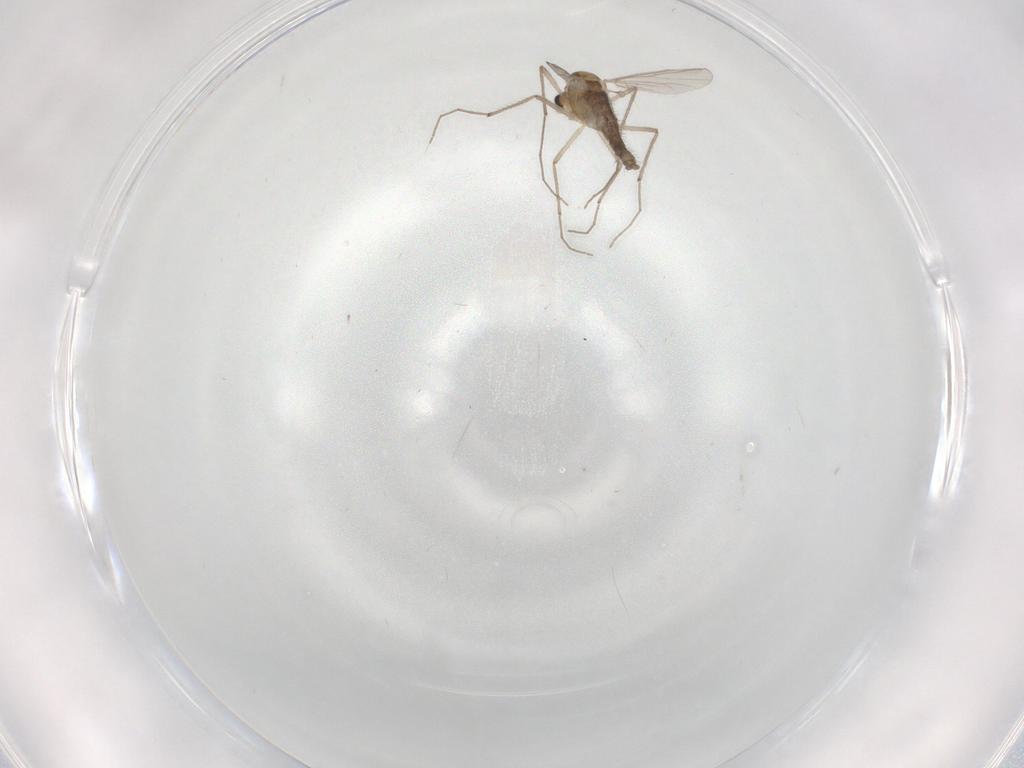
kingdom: Animalia
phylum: Arthropoda
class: Insecta
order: Diptera
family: Chironomidae
